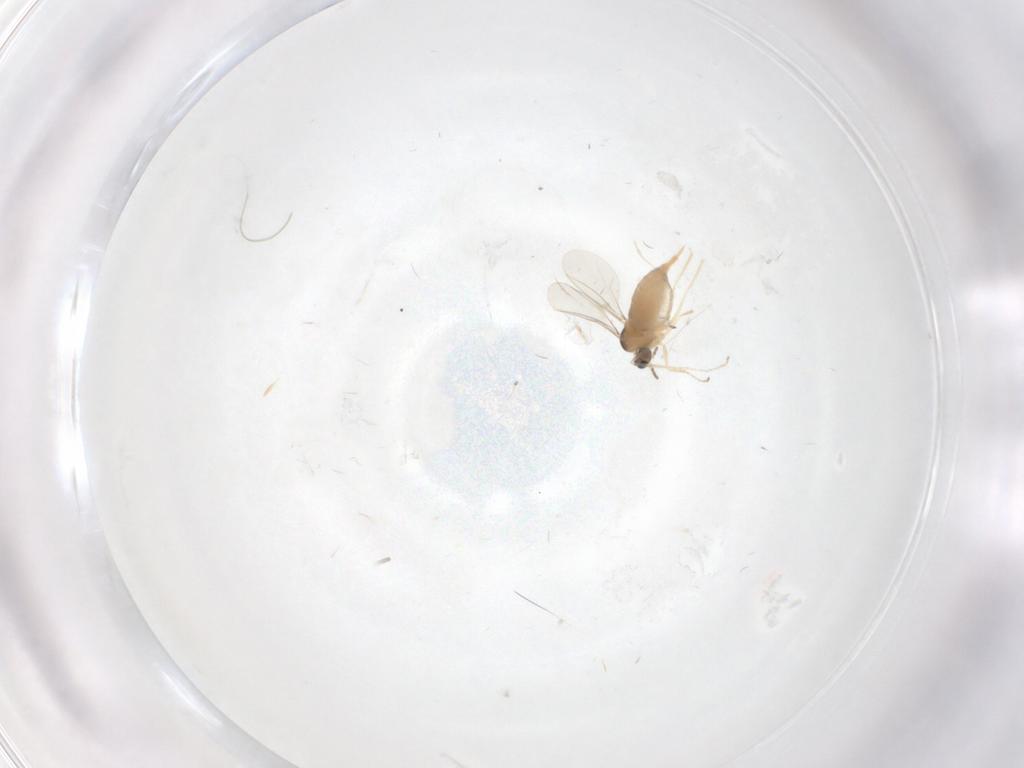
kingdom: Animalia
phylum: Arthropoda
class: Insecta
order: Diptera
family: Cecidomyiidae
